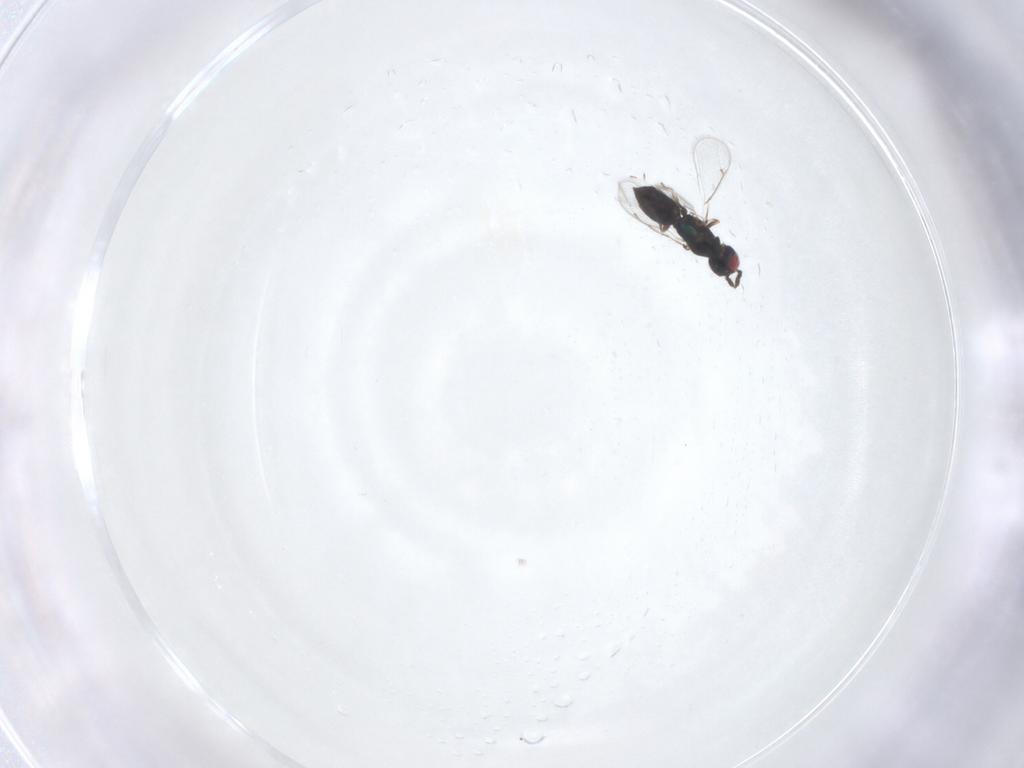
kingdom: Animalia
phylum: Arthropoda
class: Insecta
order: Hymenoptera
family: Eulophidae
